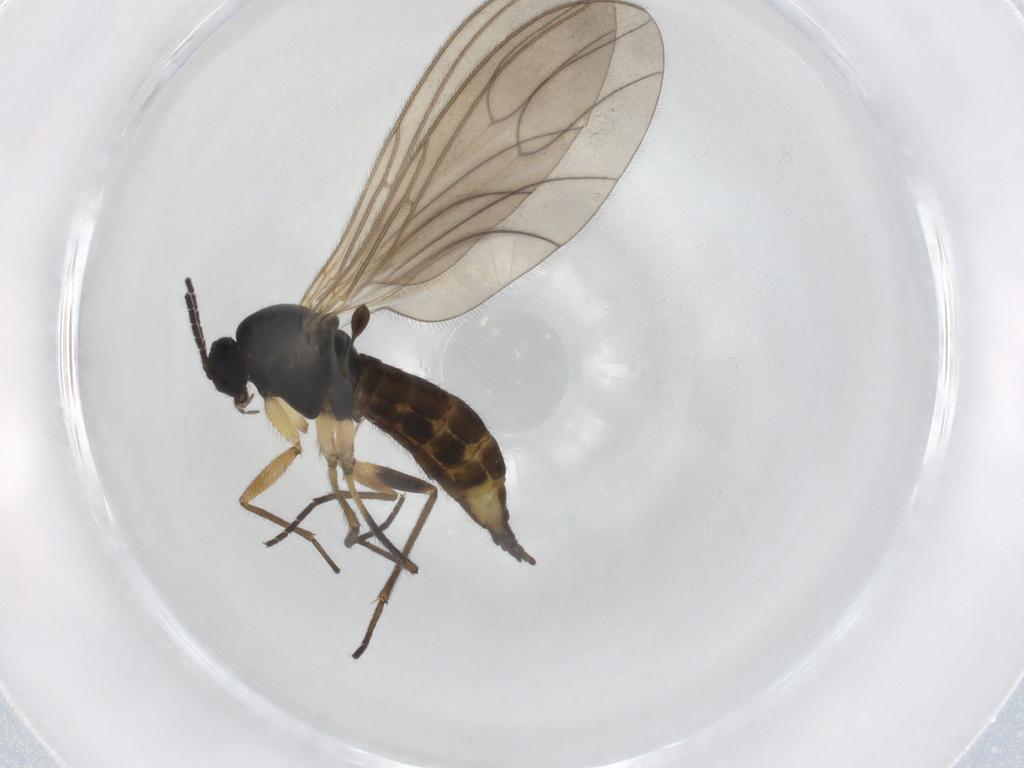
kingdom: Animalia
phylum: Arthropoda
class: Insecta
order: Diptera
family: Sciaridae
